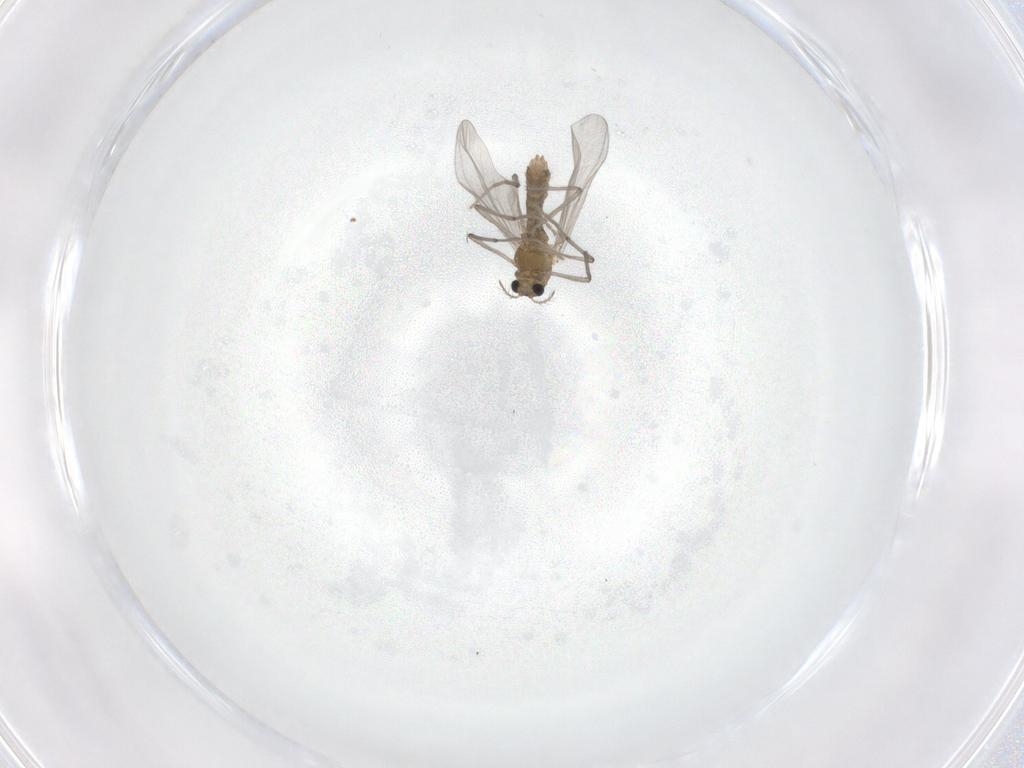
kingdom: Animalia
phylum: Arthropoda
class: Insecta
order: Diptera
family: Chironomidae
